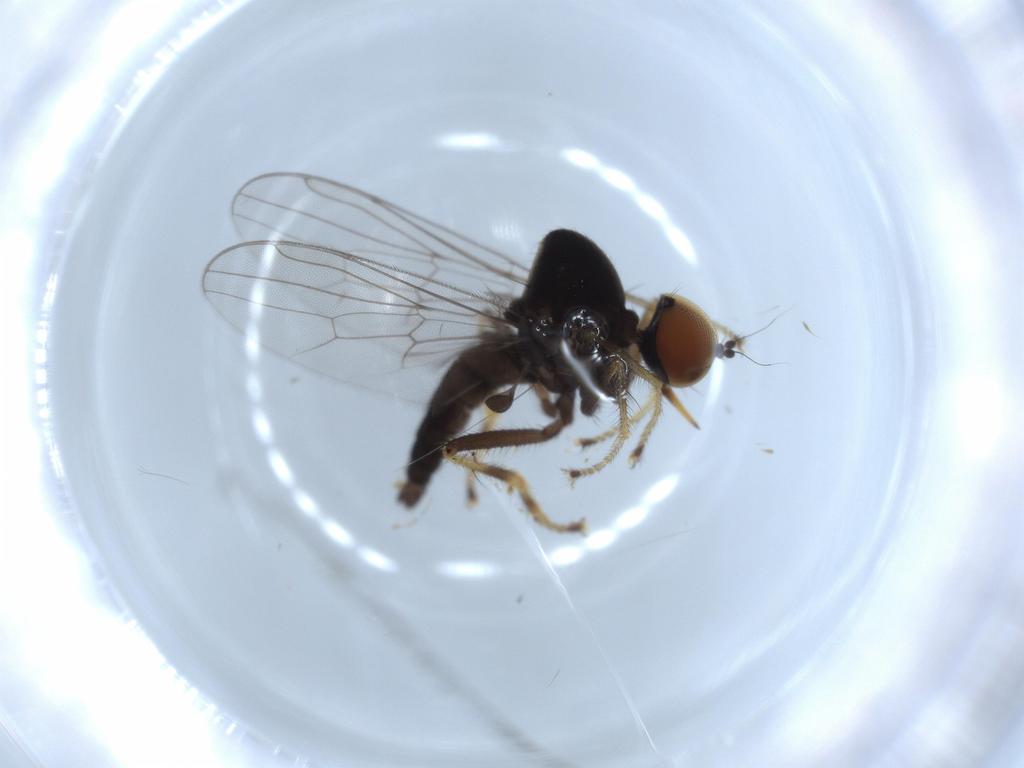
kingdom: Animalia
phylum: Arthropoda
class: Insecta
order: Diptera
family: Hybotidae
